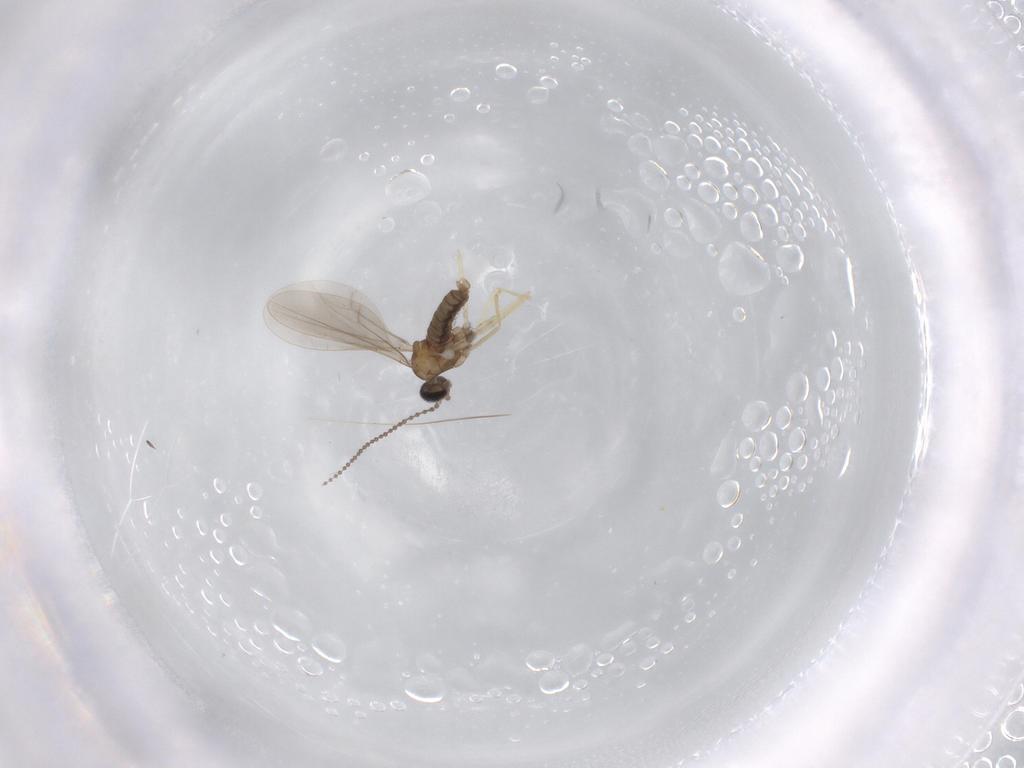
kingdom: Animalia
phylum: Arthropoda
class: Insecta
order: Diptera
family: Cecidomyiidae
